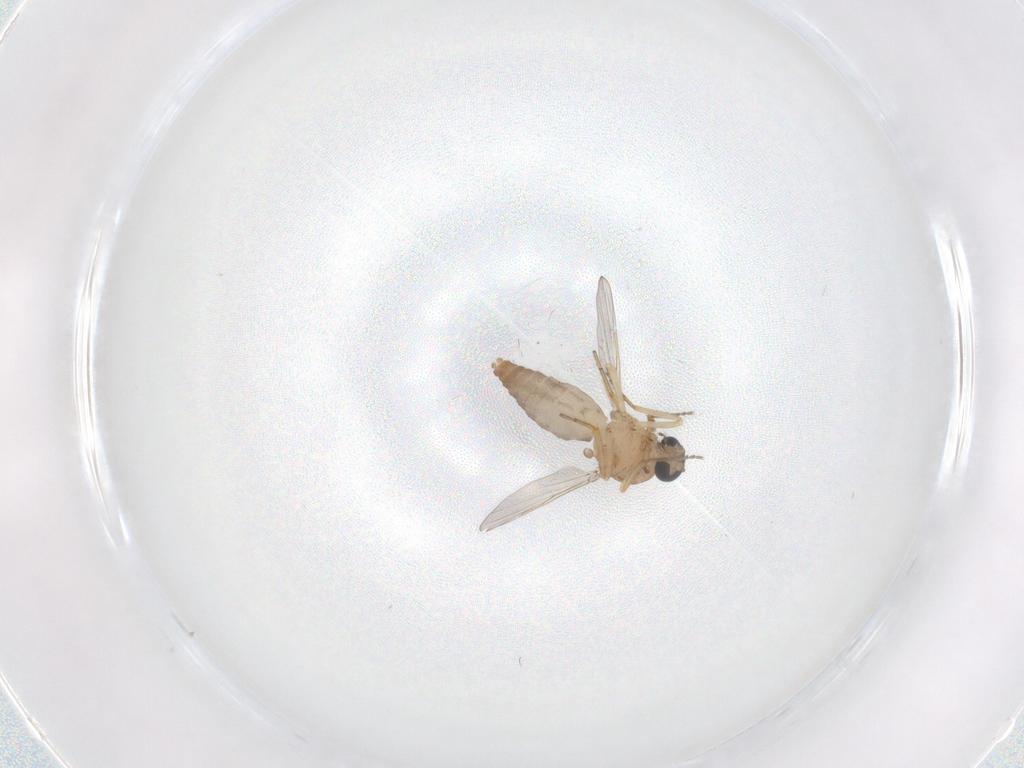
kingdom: Animalia
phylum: Arthropoda
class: Insecta
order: Diptera
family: Ceratopogonidae
